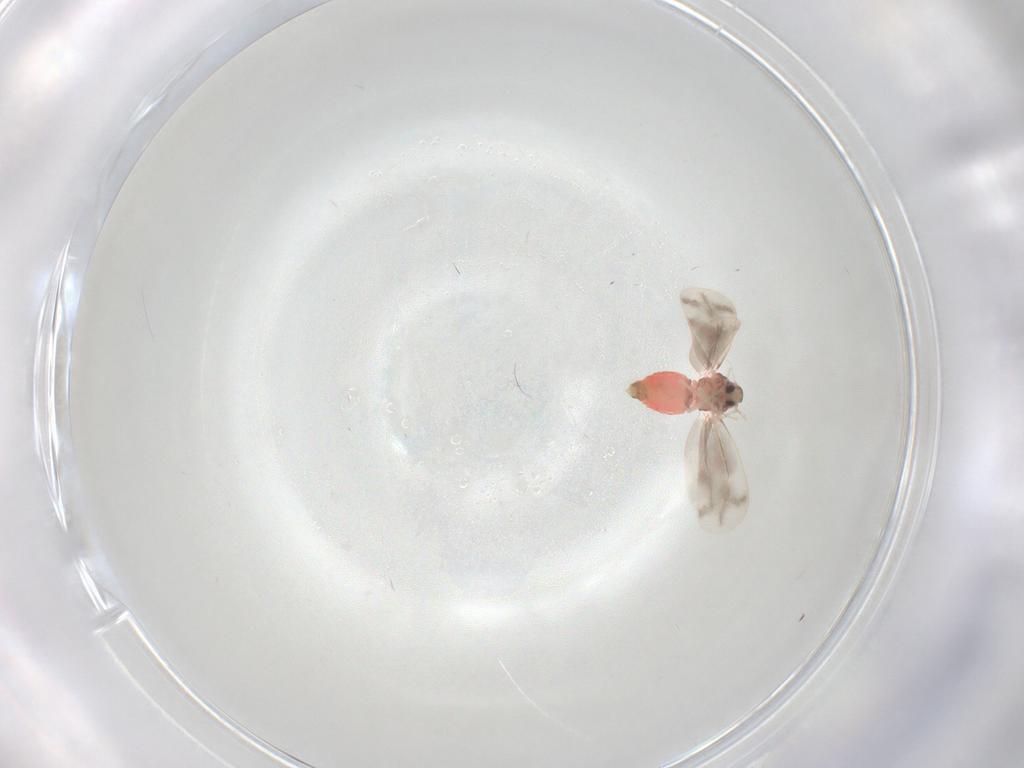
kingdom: Animalia
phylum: Arthropoda
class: Insecta
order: Hemiptera
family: Aleyrodidae
